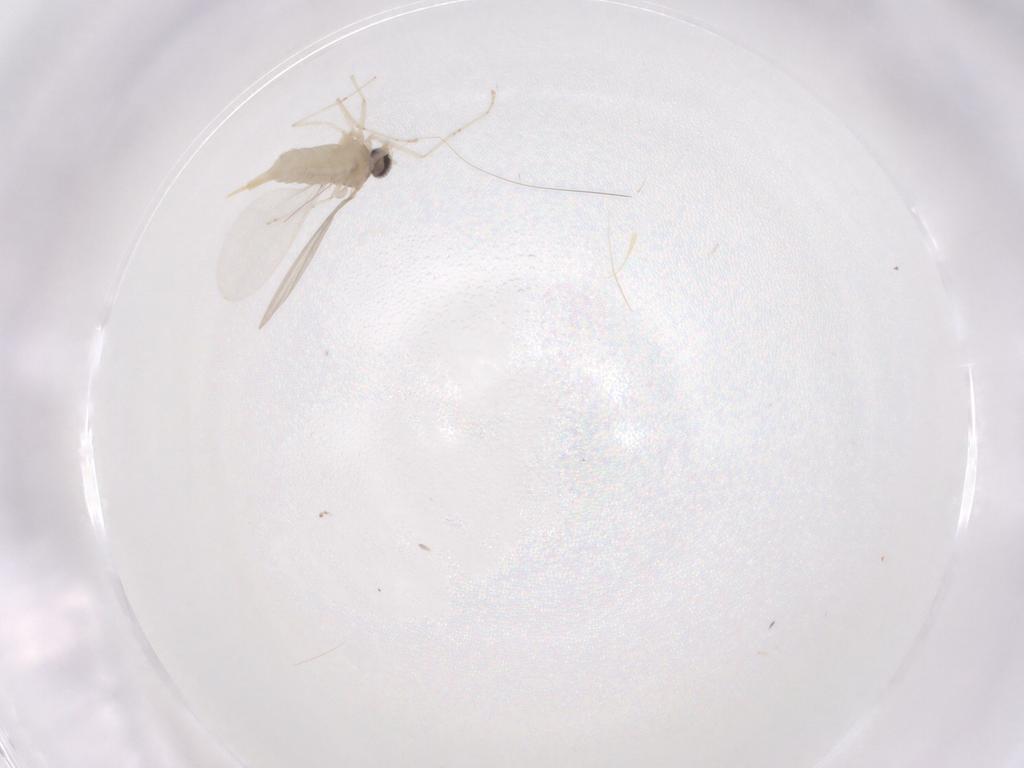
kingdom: Animalia
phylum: Arthropoda
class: Insecta
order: Diptera
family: Cecidomyiidae
